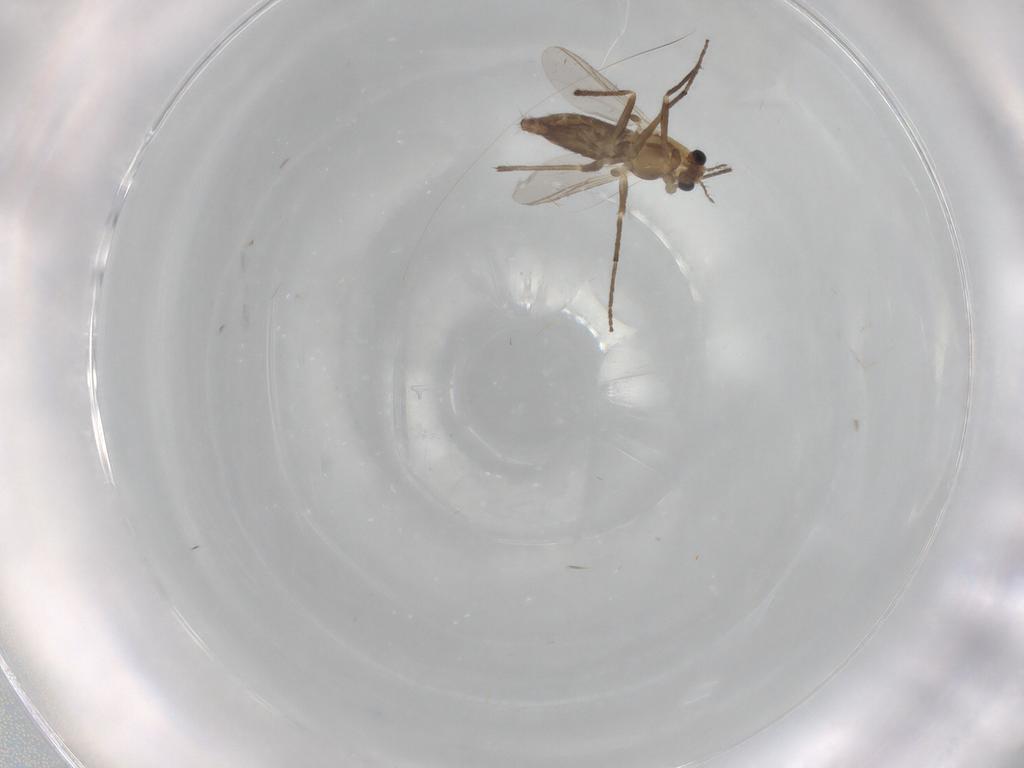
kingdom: Animalia
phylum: Arthropoda
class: Insecta
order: Diptera
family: Chironomidae
